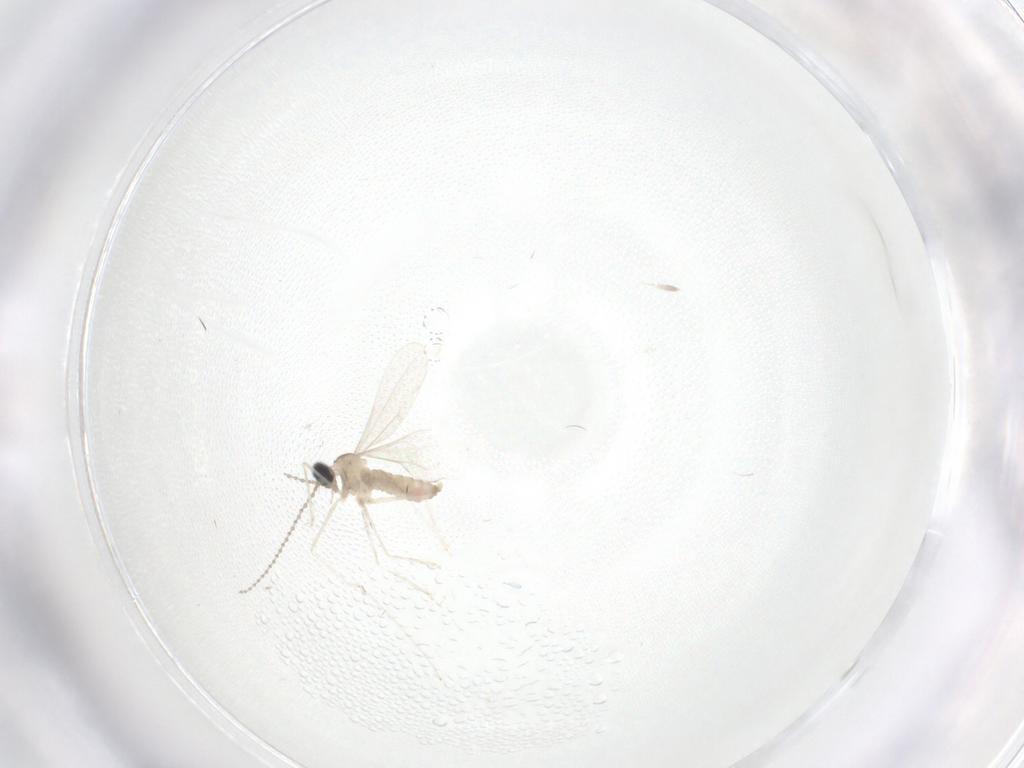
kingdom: Animalia
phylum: Arthropoda
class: Insecta
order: Diptera
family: Cecidomyiidae
